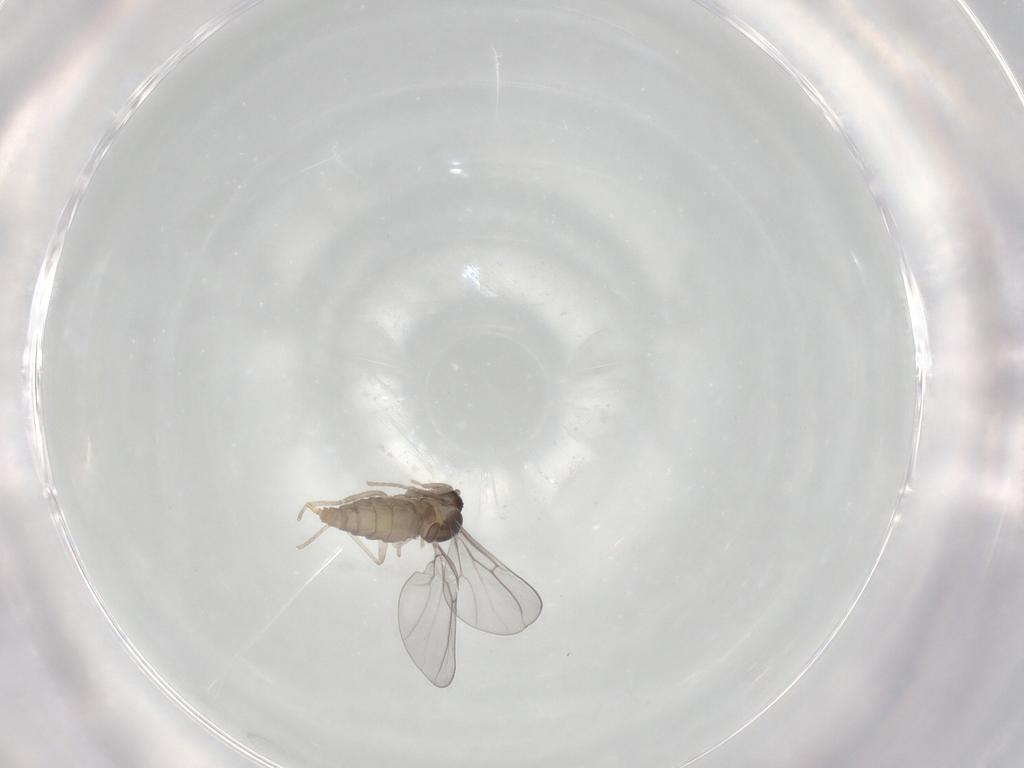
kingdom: Animalia
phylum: Arthropoda
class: Insecta
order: Diptera
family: Cecidomyiidae
